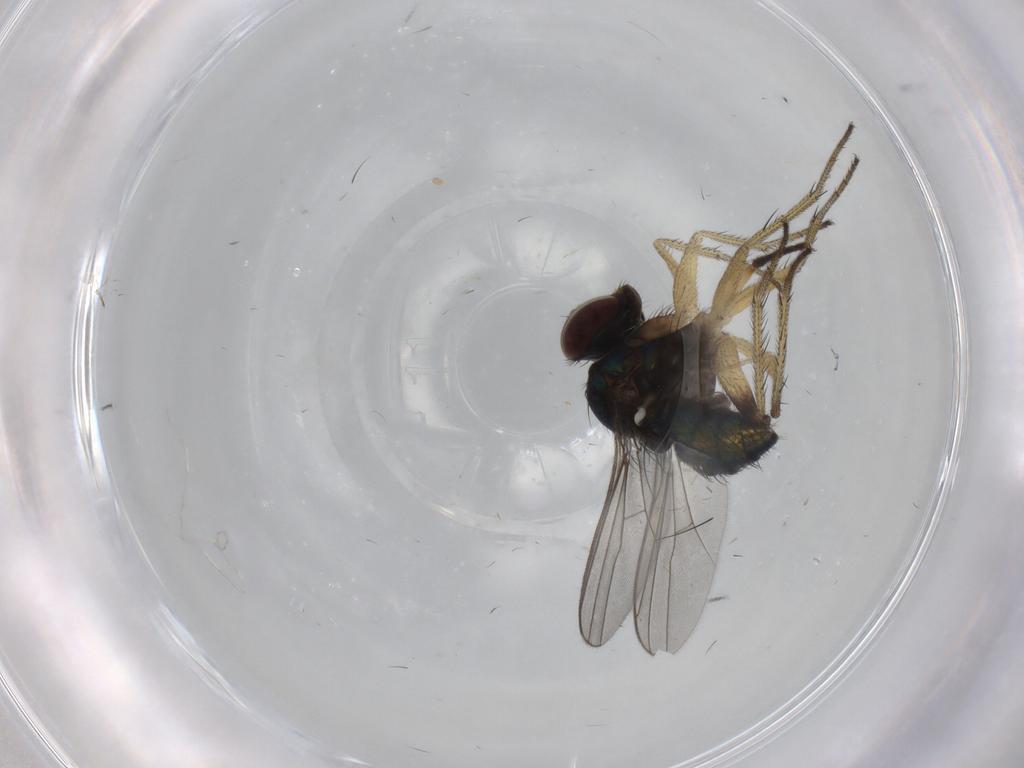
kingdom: Animalia
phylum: Arthropoda
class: Insecta
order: Diptera
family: Dolichopodidae
